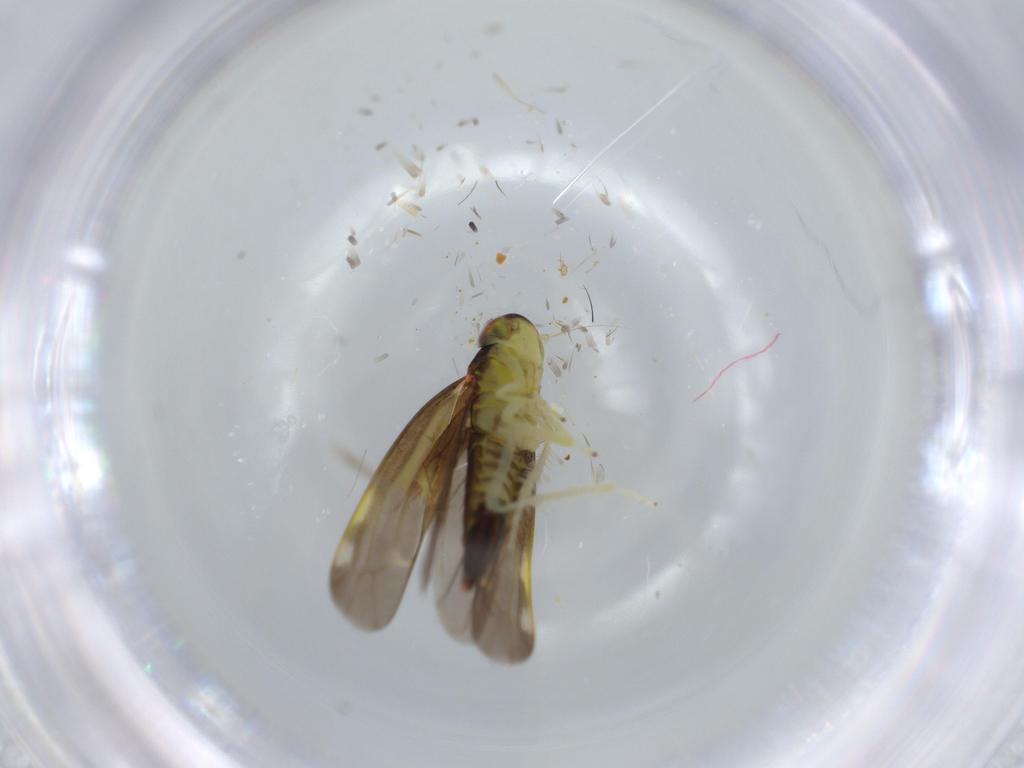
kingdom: Animalia
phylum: Arthropoda
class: Insecta
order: Hemiptera
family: Cicadellidae
